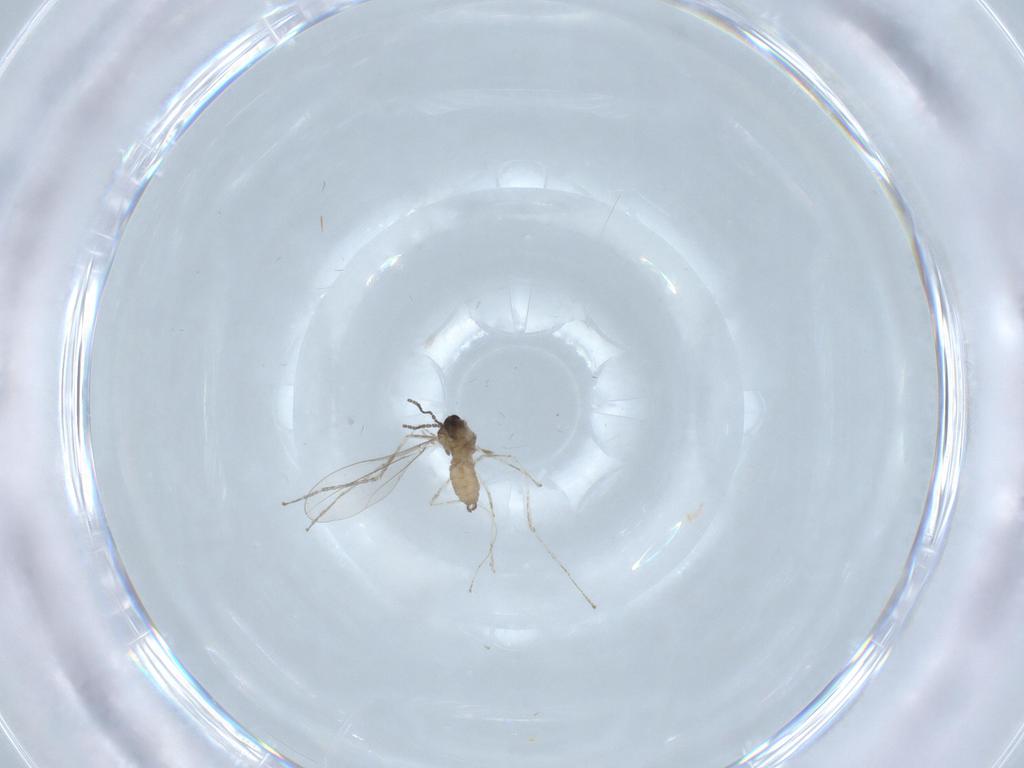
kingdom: Animalia
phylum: Arthropoda
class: Insecta
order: Diptera
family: Cecidomyiidae
